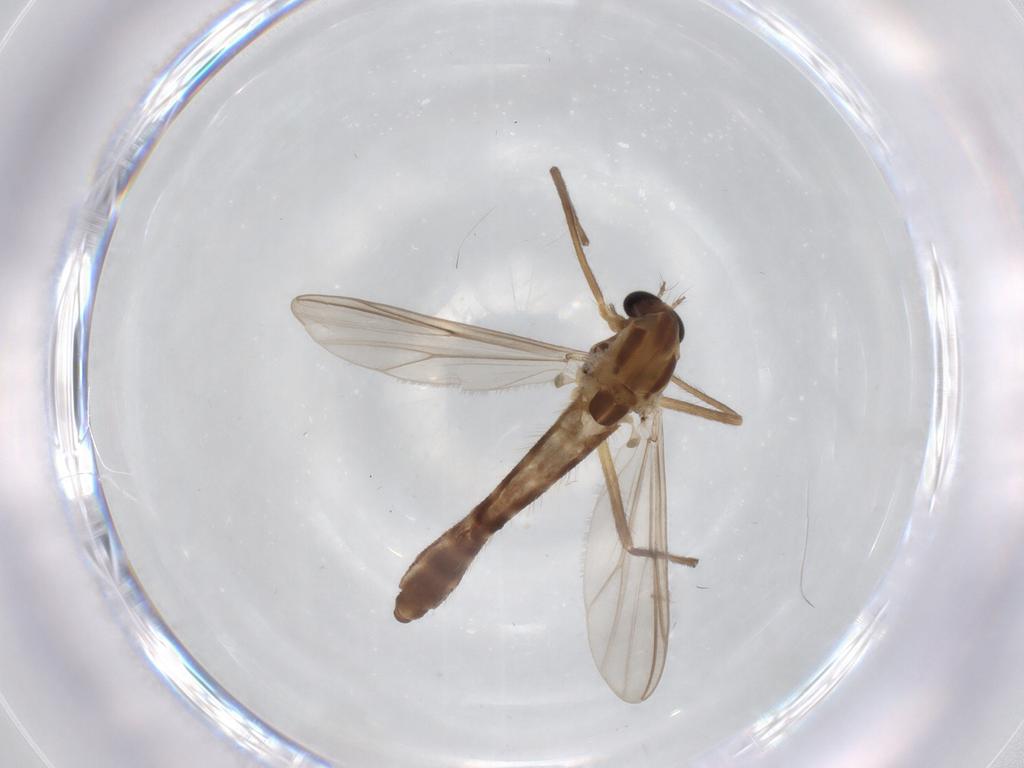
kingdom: Animalia
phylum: Arthropoda
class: Insecta
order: Diptera
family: Chironomidae
